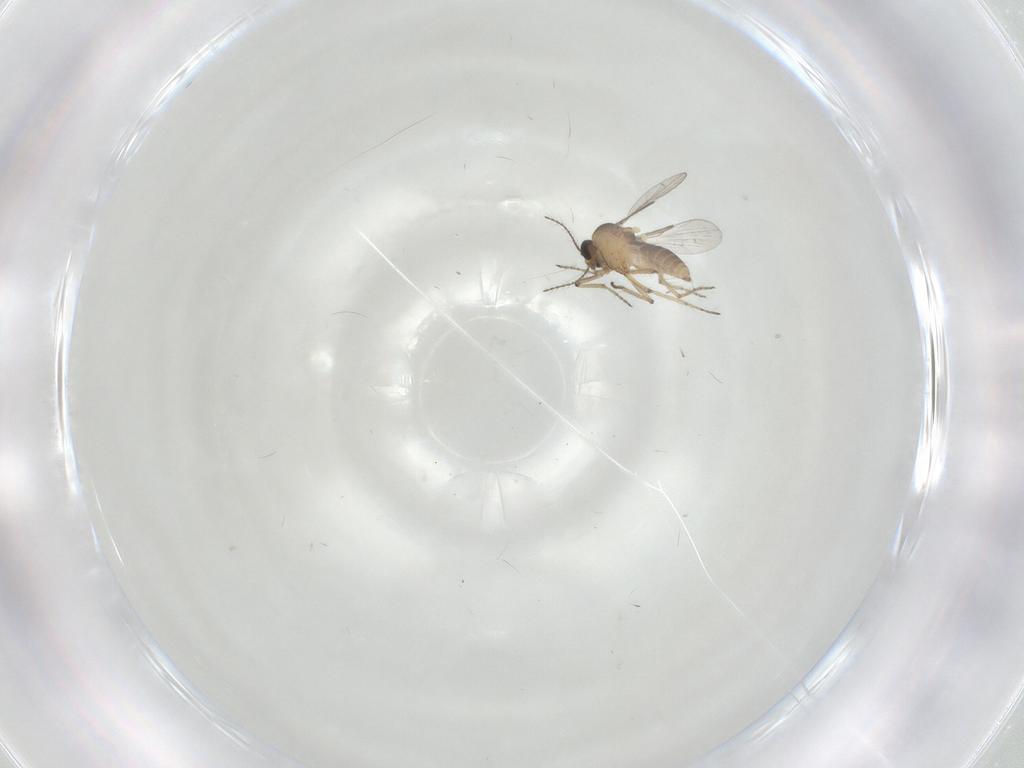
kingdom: Animalia
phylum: Arthropoda
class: Insecta
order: Diptera
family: Ceratopogonidae
